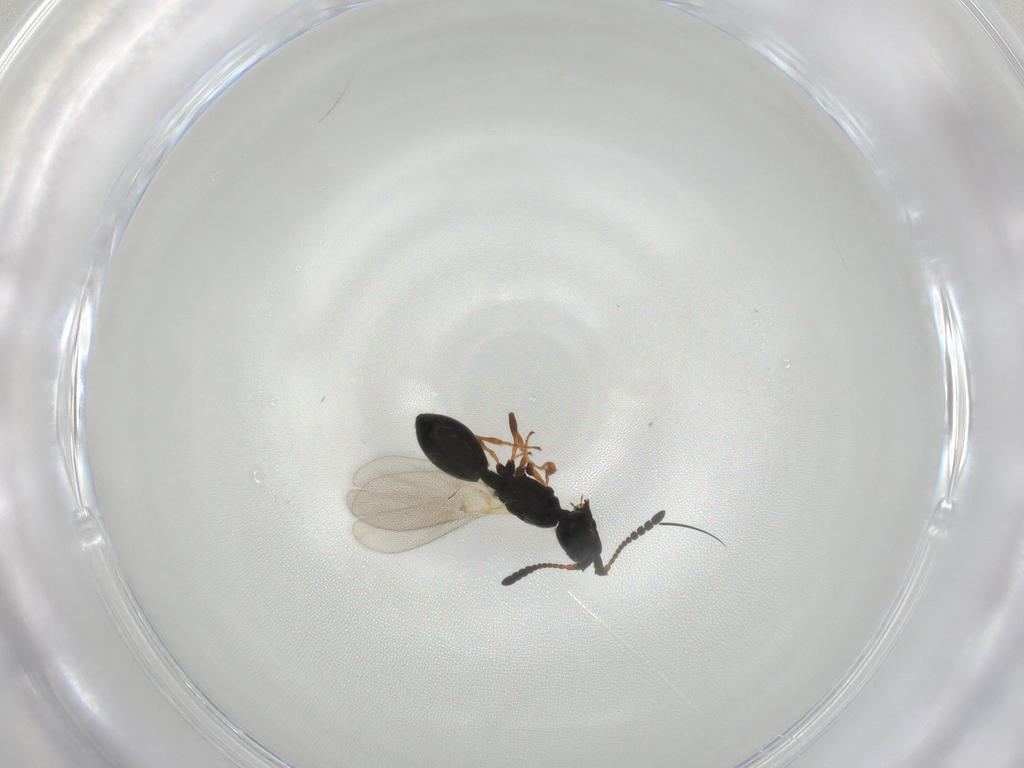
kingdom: Animalia
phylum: Arthropoda
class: Insecta
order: Hymenoptera
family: Diapriidae
